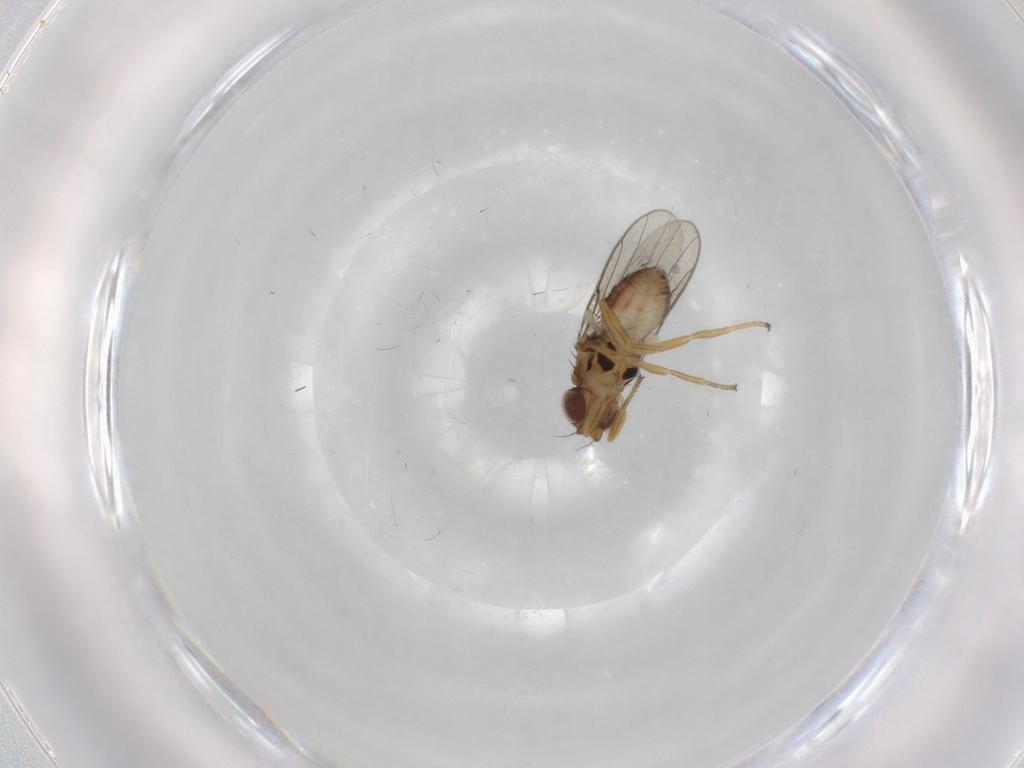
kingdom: Animalia
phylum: Arthropoda
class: Insecta
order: Diptera
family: Chloropidae
